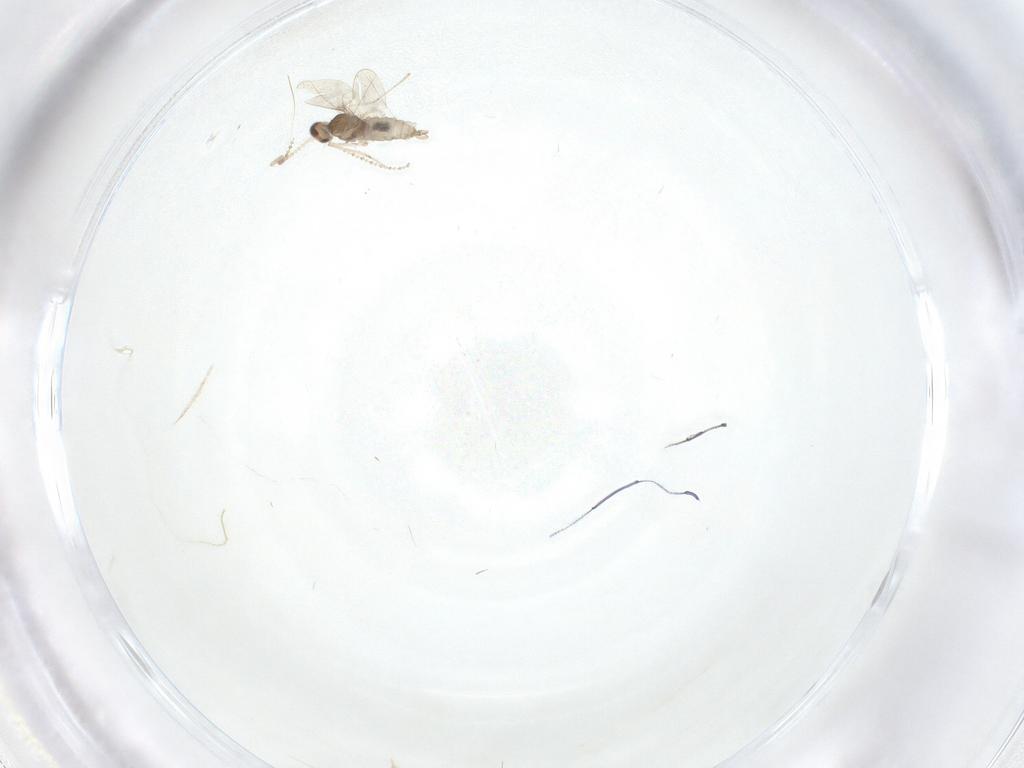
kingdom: Animalia
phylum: Arthropoda
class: Insecta
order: Diptera
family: Cecidomyiidae
